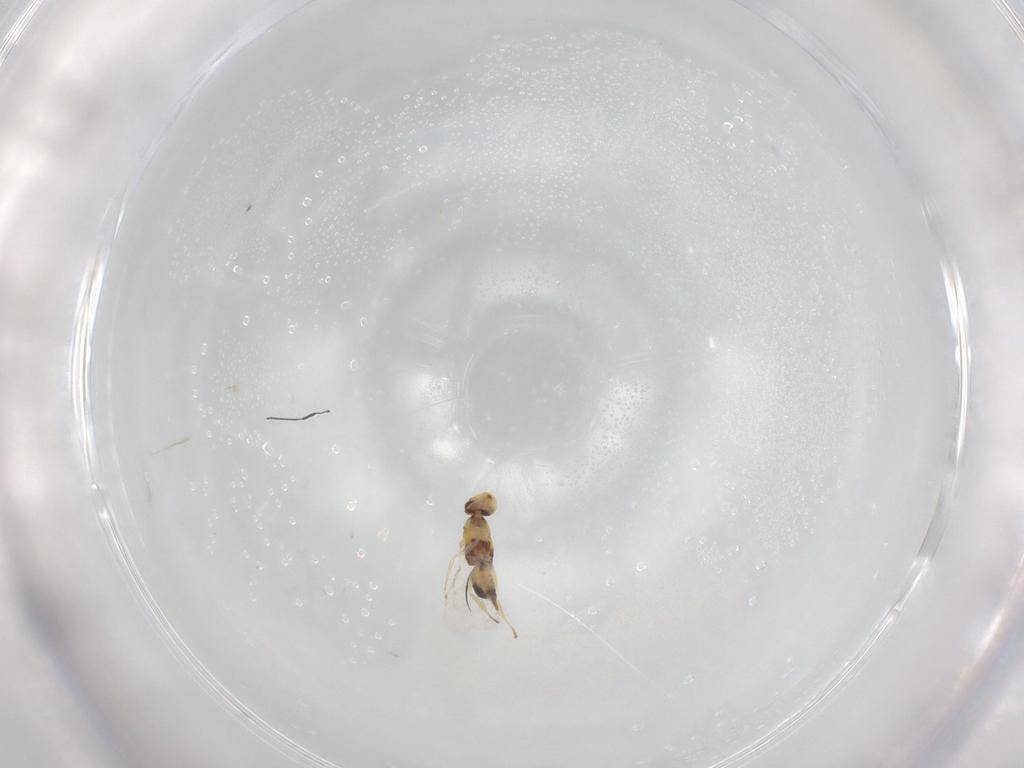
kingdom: Animalia
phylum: Arthropoda
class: Insecta
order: Hymenoptera
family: Eulophidae
